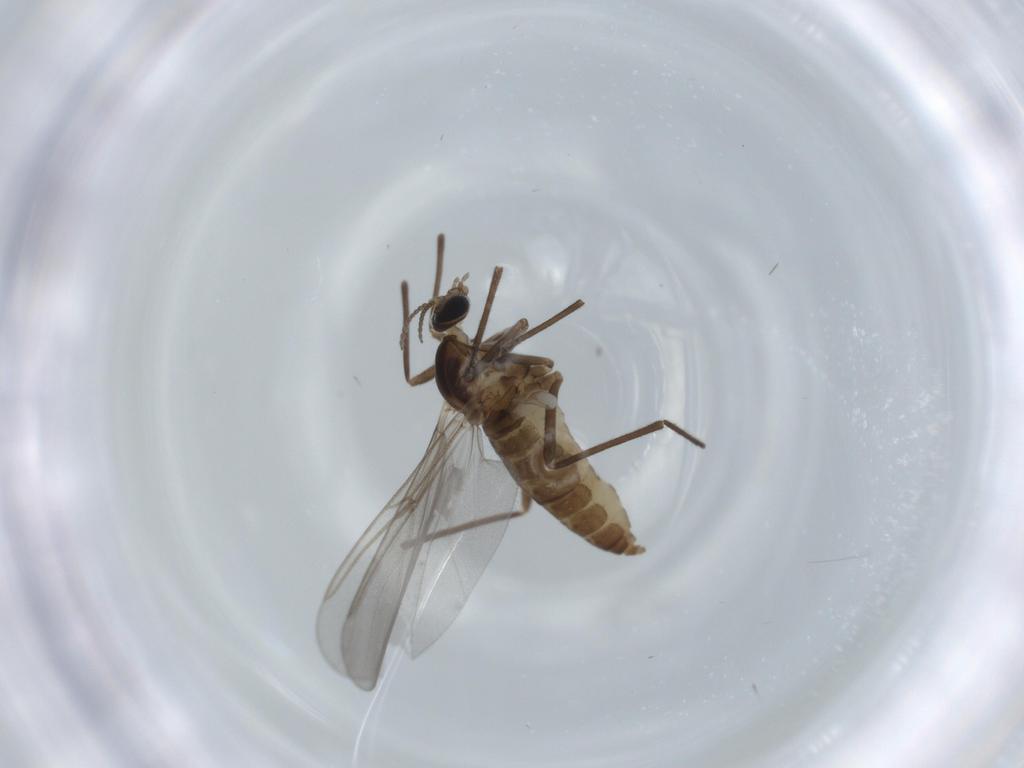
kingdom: Animalia
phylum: Arthropoda
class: Insecta
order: Diptera
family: Cecidomyiidae
